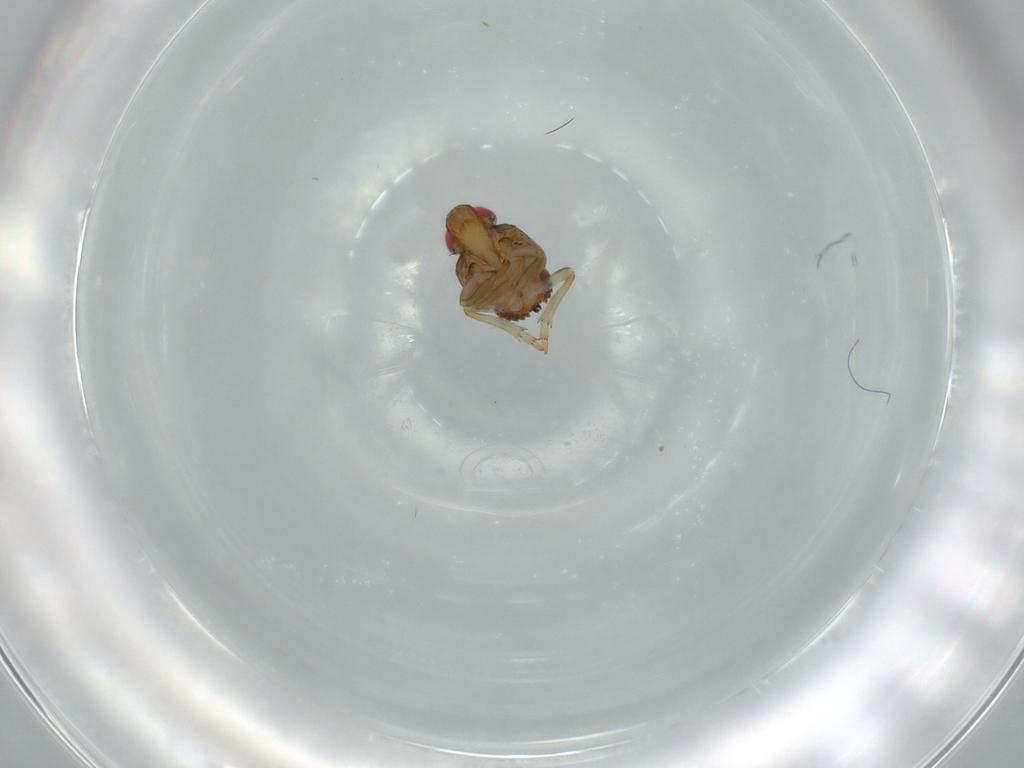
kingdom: Animalia
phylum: Arthropoda
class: Insecta
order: Hemiptera
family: Issidae
